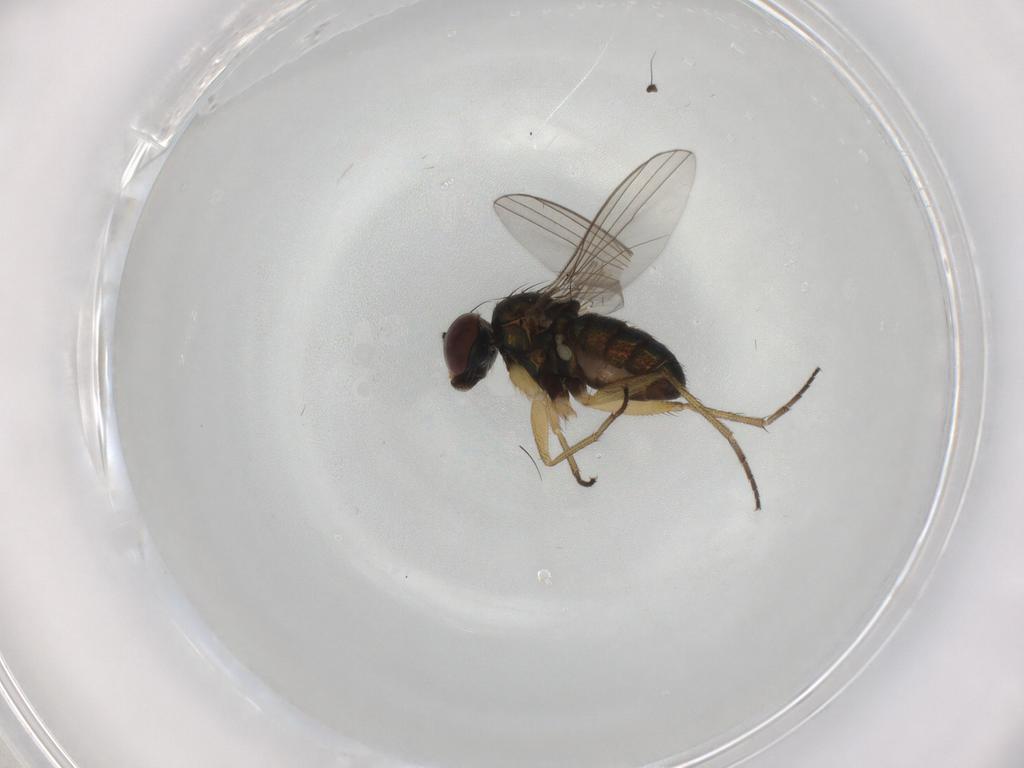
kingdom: Animalia
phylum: Arthropoda
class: Insecta
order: Diptera
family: Dolichopodidae
